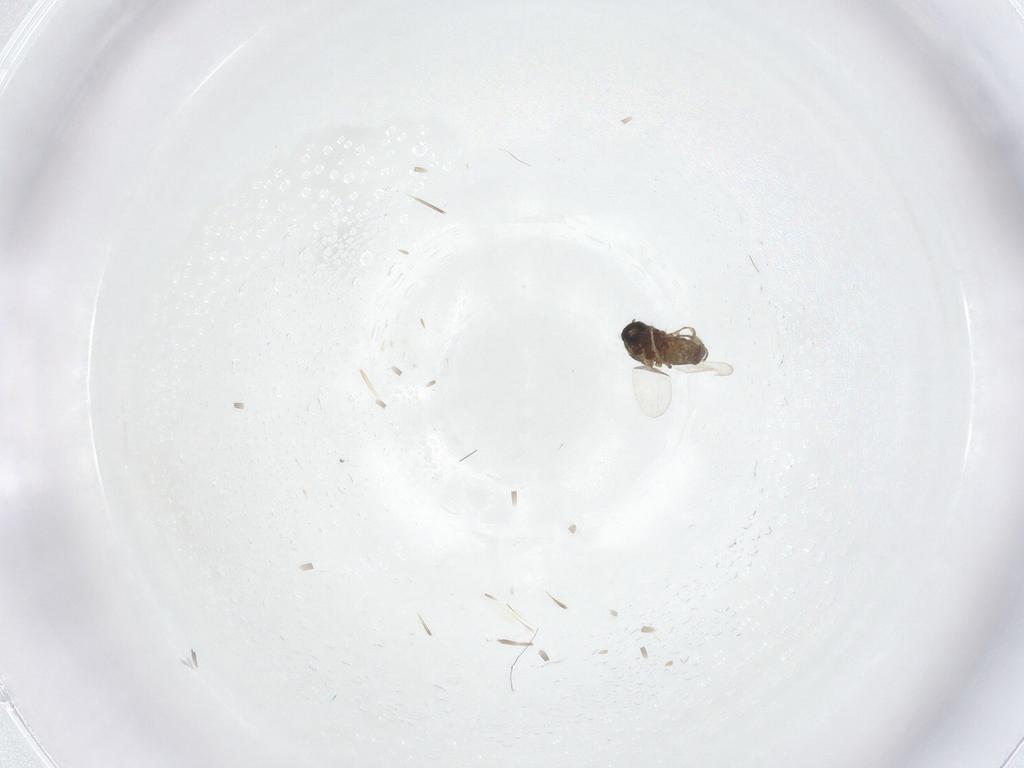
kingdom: Animalia
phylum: Arthropoda
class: Insecta
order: Diptera
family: Ceratopogonidae
